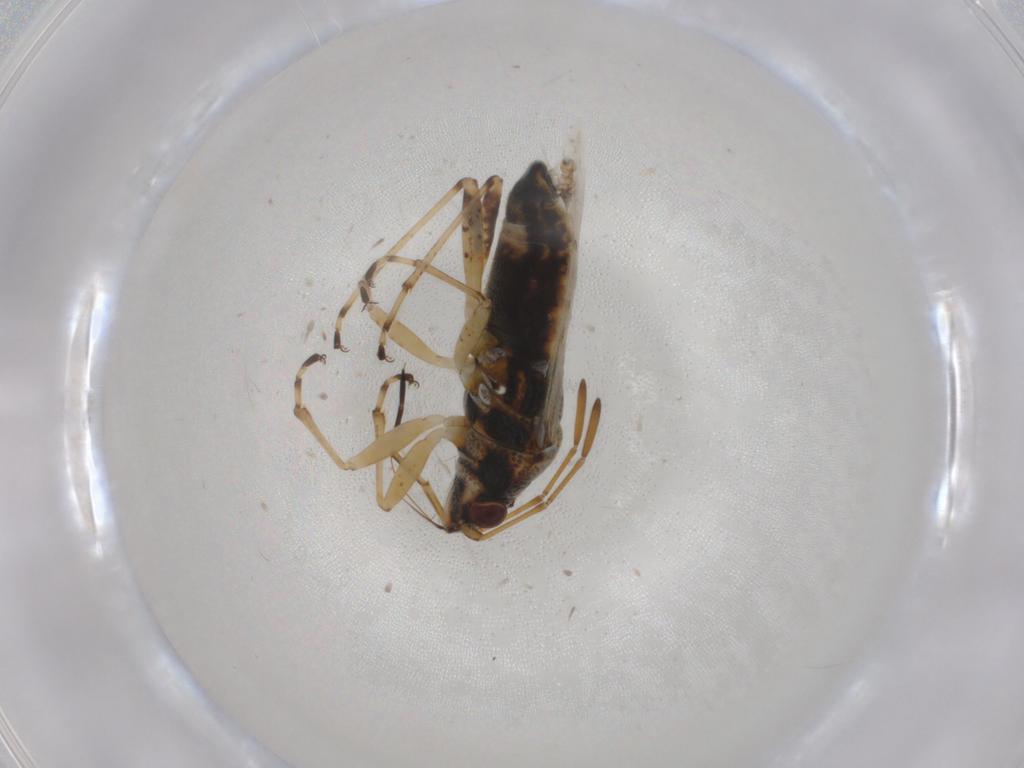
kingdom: Animalia
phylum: Arthropoda
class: Insecta
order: Hemiptera
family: Lygaeidae
